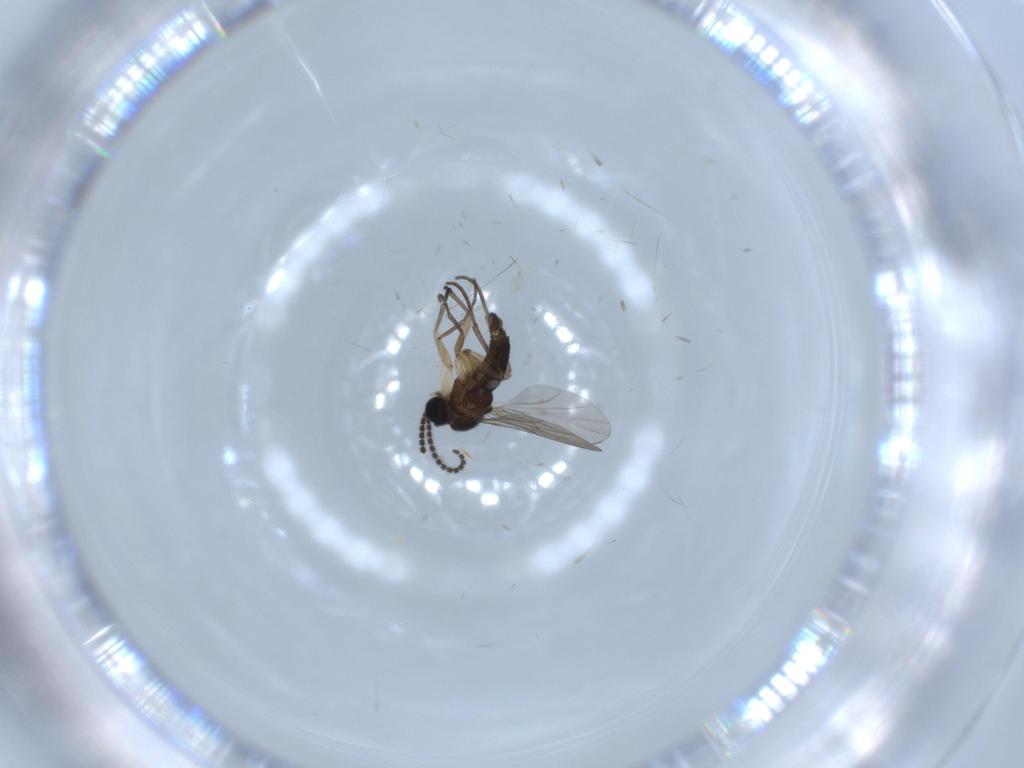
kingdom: Animalia
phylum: Arthropoda
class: Insecta
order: Diptera
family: Sciaridae
